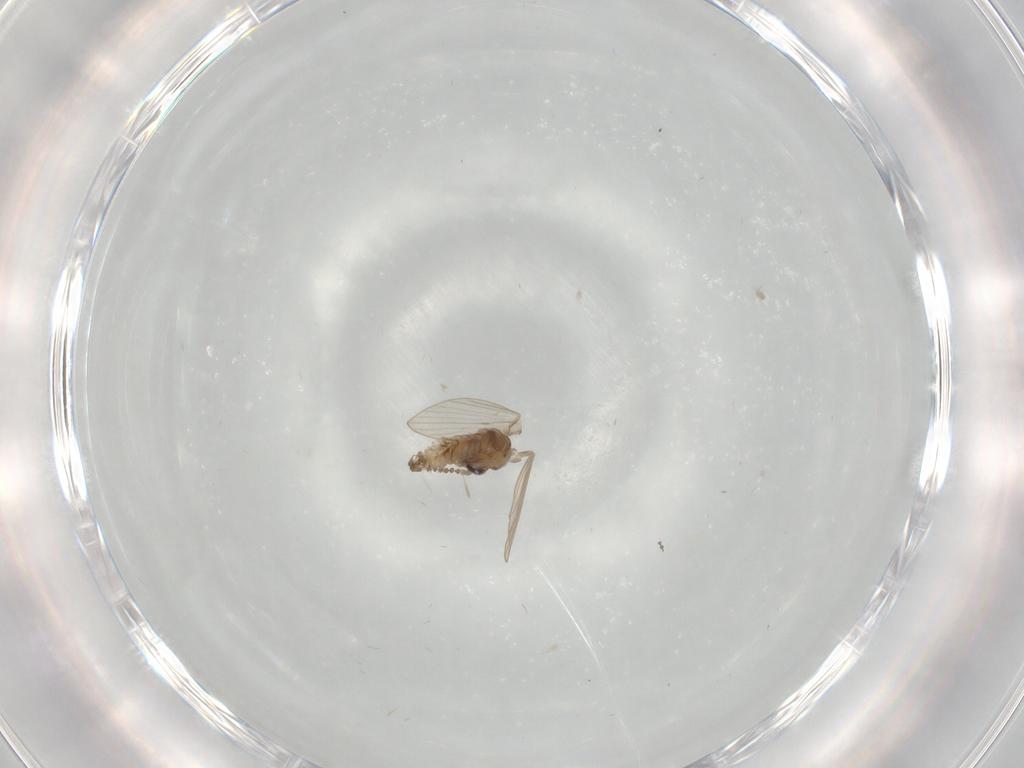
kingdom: Animalia
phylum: Arthropoda
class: Insecta
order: Diptera
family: Psychodidae
